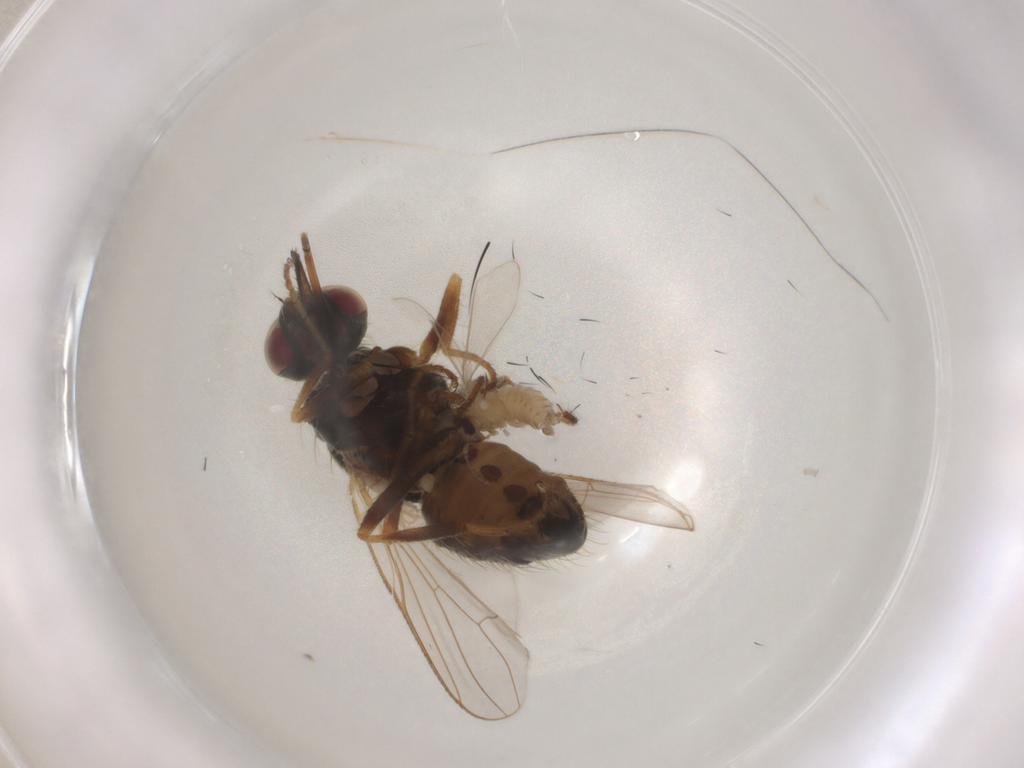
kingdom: Animalia
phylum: Arthropoda
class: Insecta
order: Diptera
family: Psychodidae
